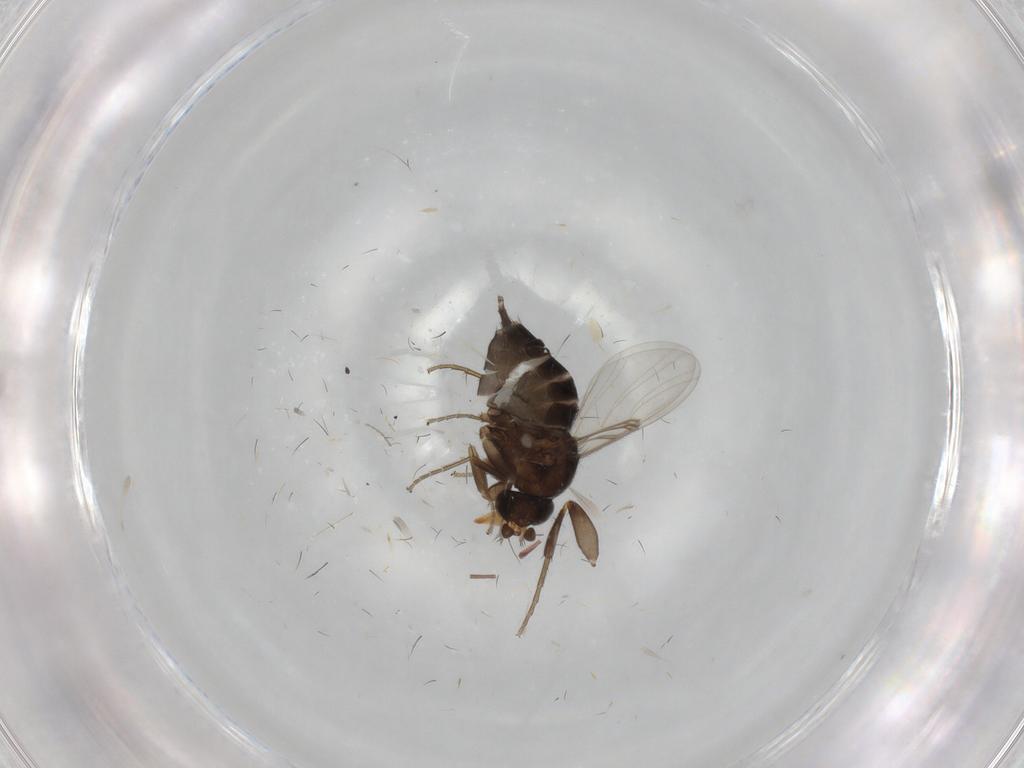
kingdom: Animalia
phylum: Arthropoda
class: Insecta
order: Diptera
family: Phoridae
